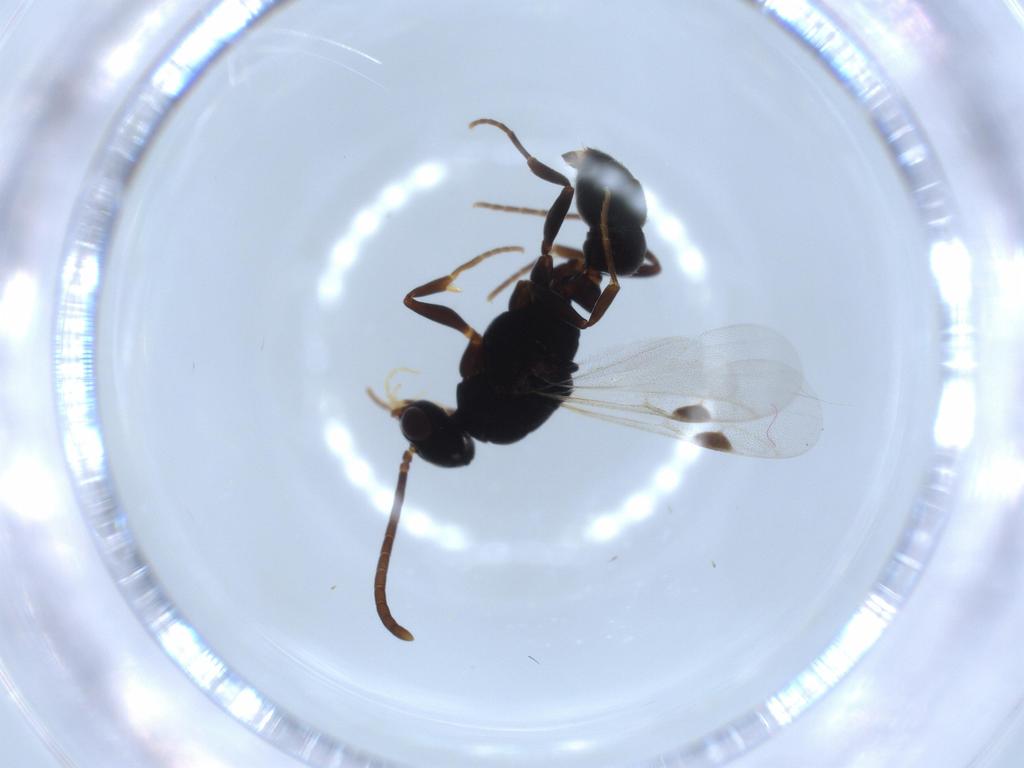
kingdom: Animalia
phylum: Arthropoda
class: Insecta
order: Hymenoptera
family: Formicidae
